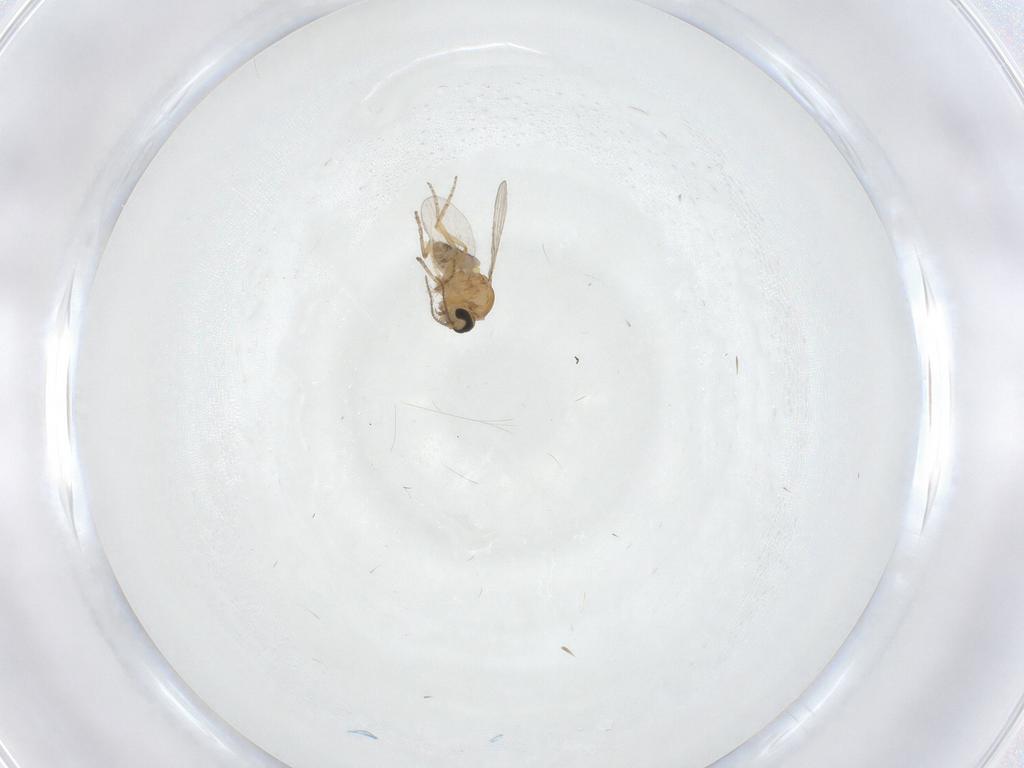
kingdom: Animalia
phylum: Arthropoda
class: Insecta
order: Diptera
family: Ceratopogonidae
